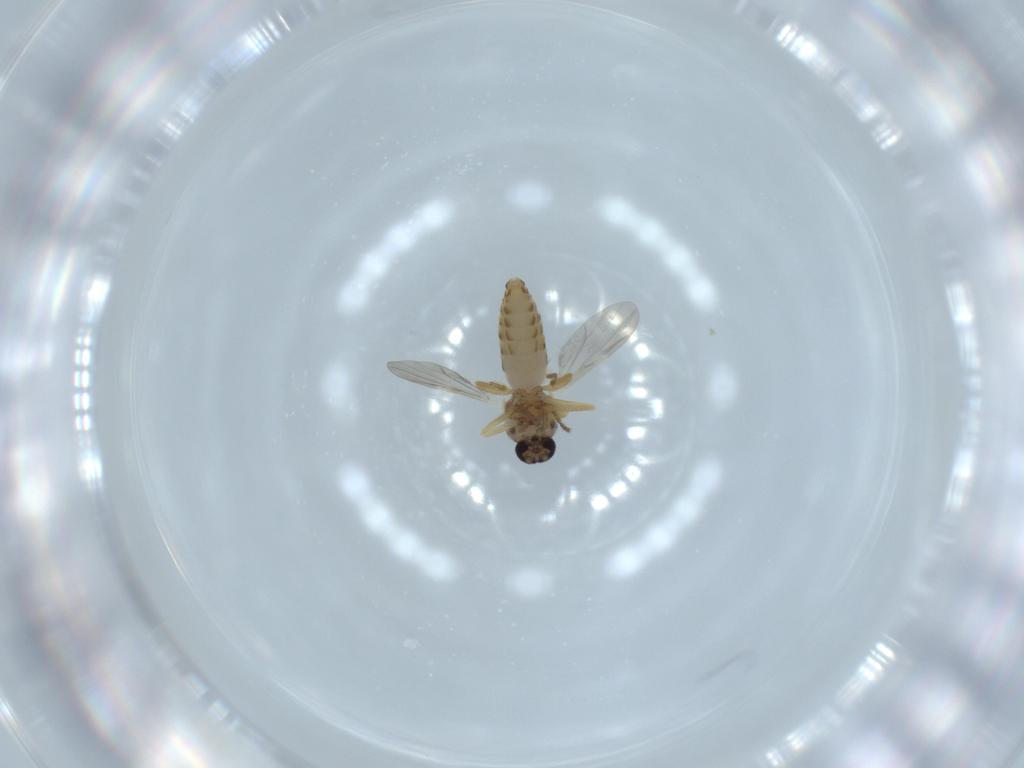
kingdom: Animalia
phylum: Arthropoda
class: Insecta
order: Diptera
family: Ceratopogonidae
